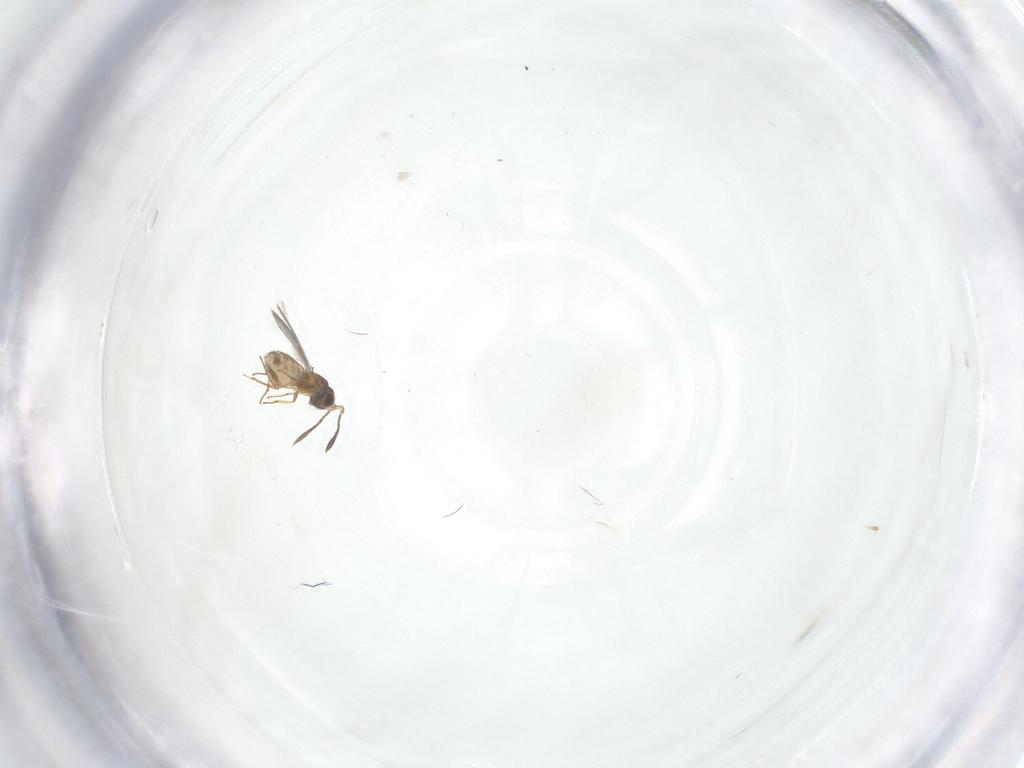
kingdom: Animalia
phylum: Arthropoda
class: Insecta
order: Hymenoptera
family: Mymaridae
